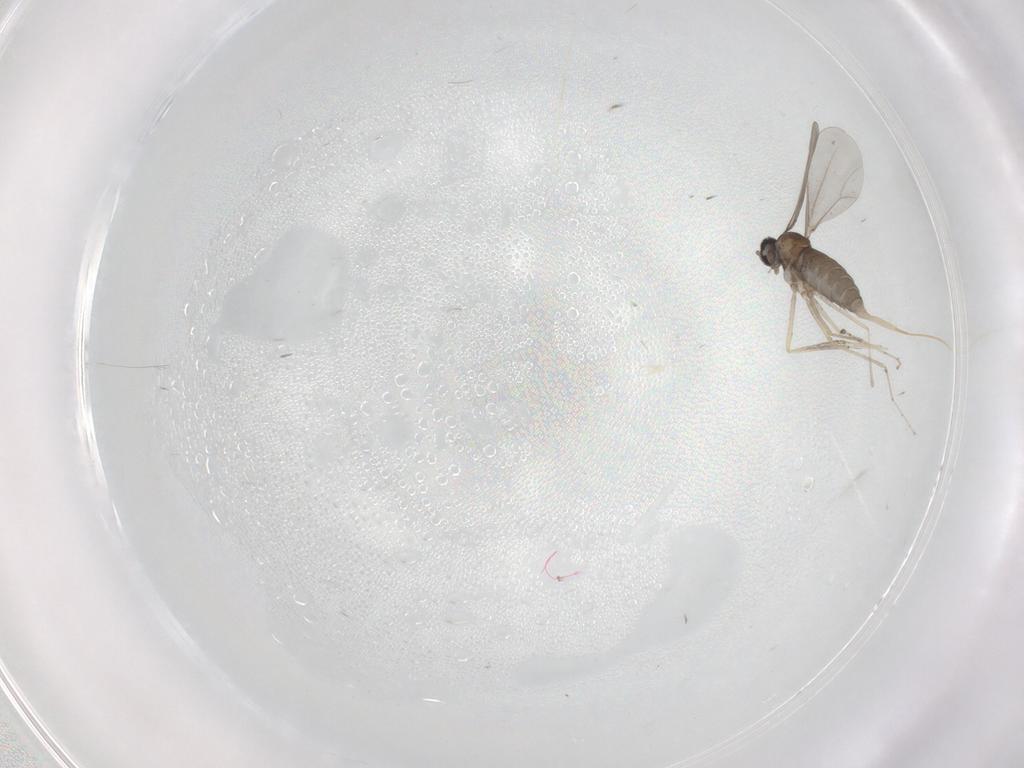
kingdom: Animalia
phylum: Arthropoda
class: Insecta
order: Diptera
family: Cecidomyiidae
